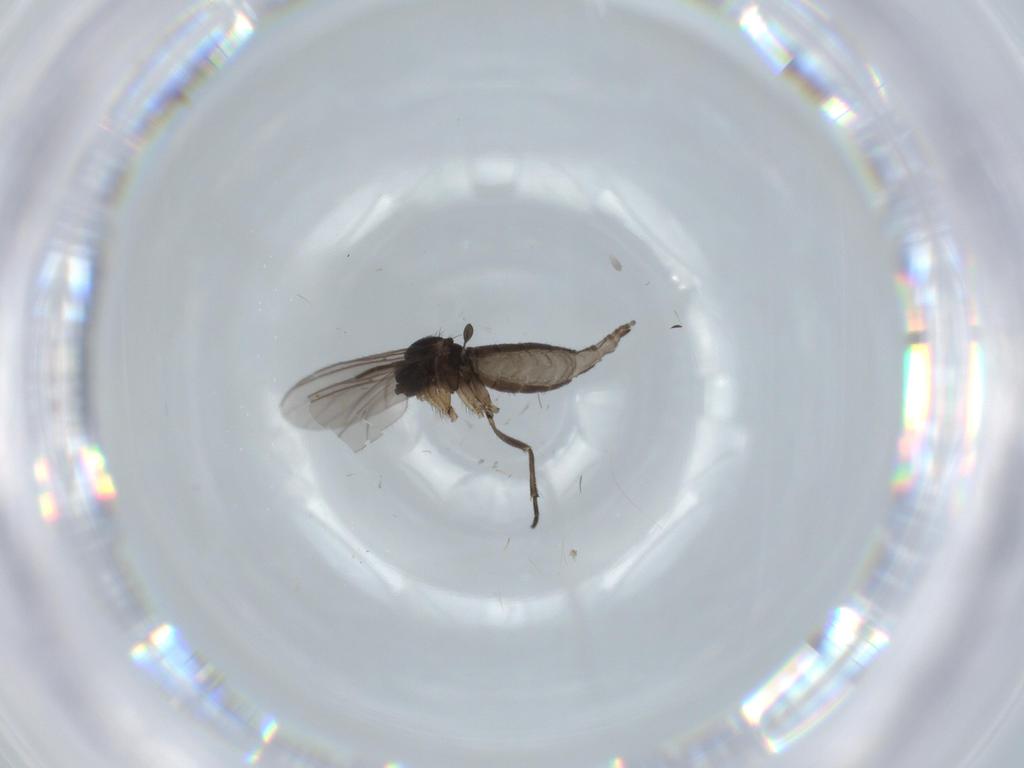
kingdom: Animalia
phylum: Arthropoda
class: Insecta
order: Diptera
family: Sciaridae
